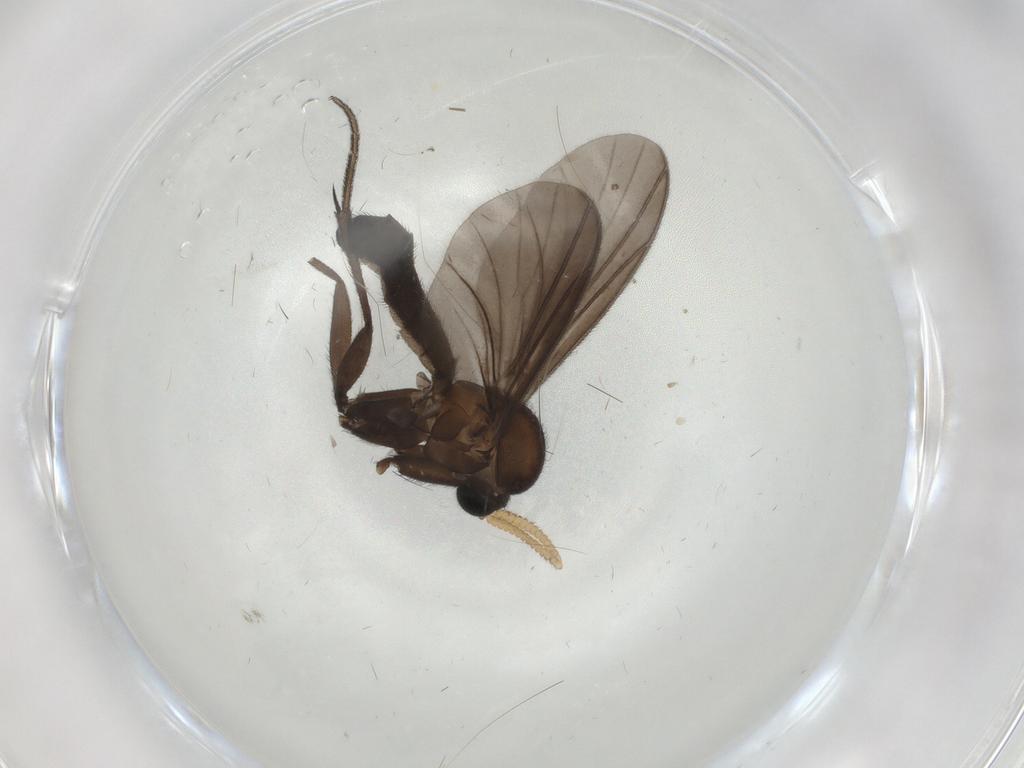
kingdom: Animalia
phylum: Arthropoda
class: Insecta
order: Diptera
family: Mycetophilidae
